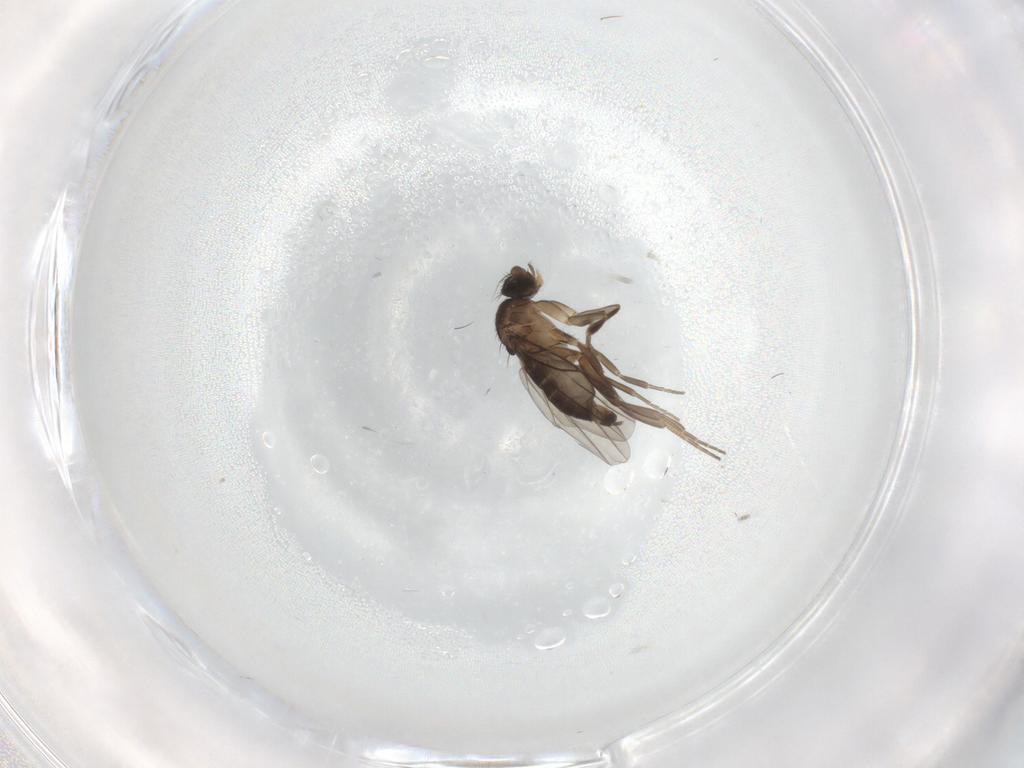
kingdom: Animalia
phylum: Arthropoda
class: Insecta
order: Diptera
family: Phoridae
